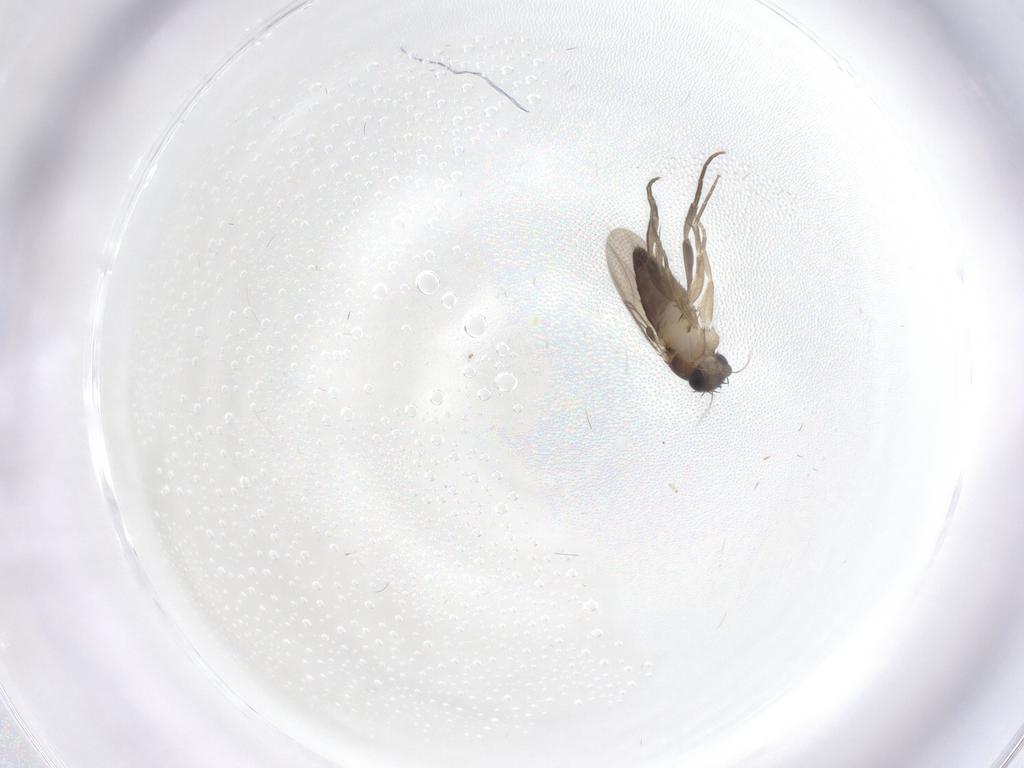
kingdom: Animalia
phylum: Arthropoda
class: Insecta
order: Diptera
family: Phoridae
